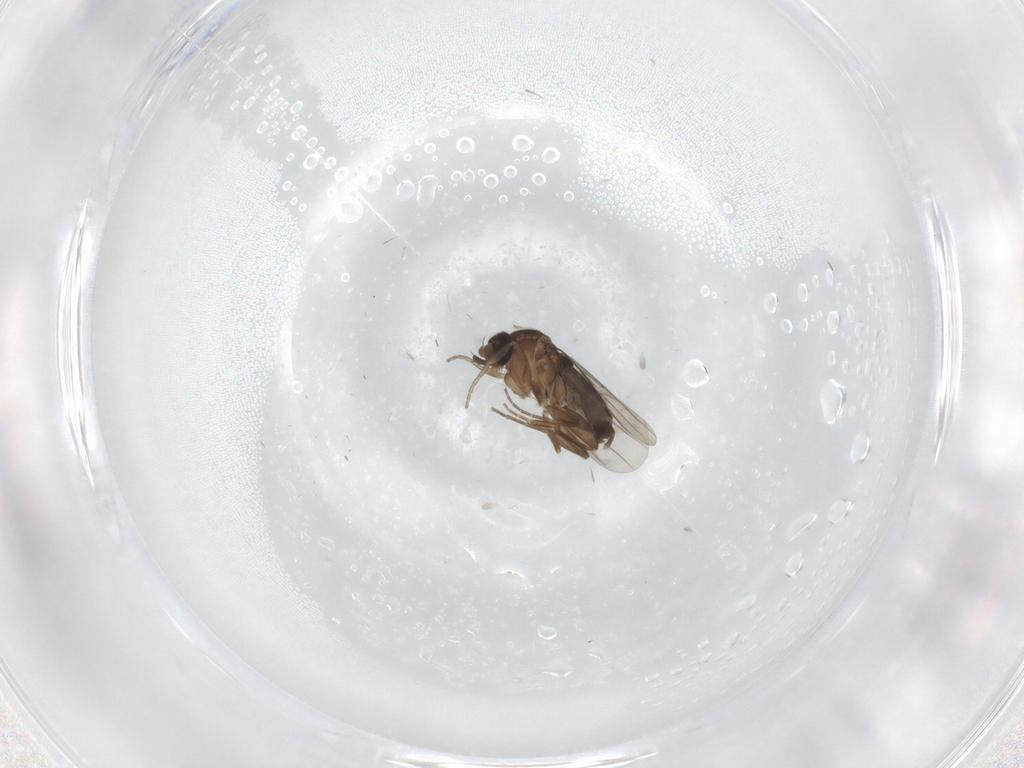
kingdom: Animalia
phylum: Arthropoda
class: Insecta
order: Diptera
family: Phoridae
